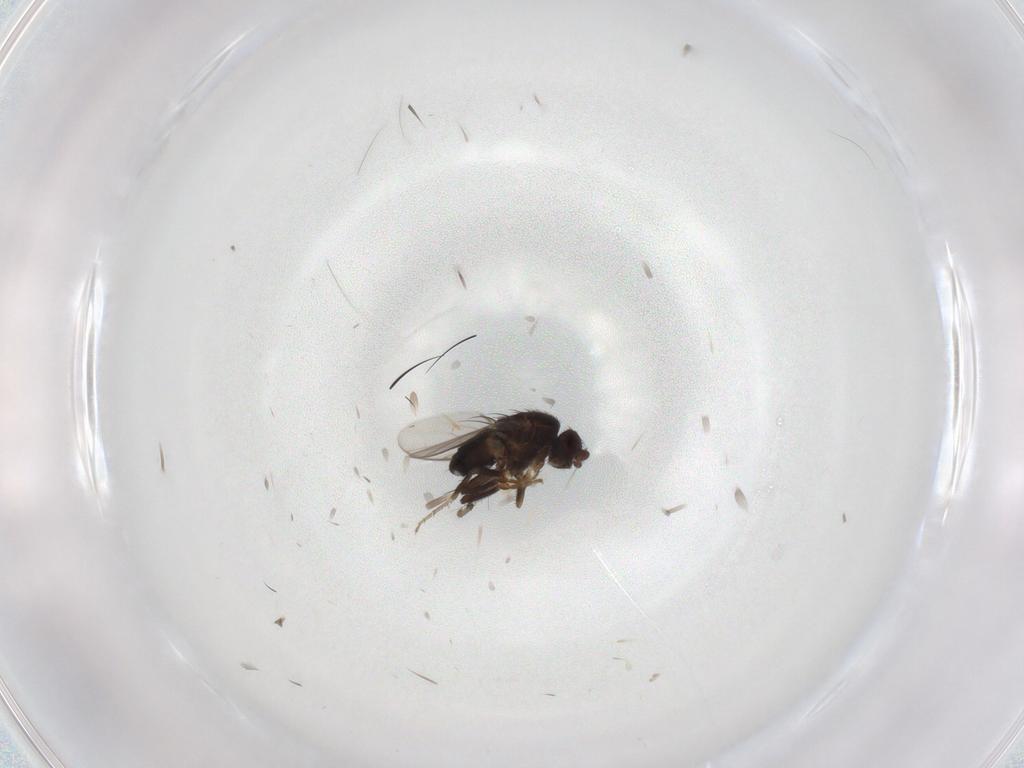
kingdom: Animalia
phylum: Arthropoda
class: Insecta
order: Diptera
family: Sphaeroceridae
